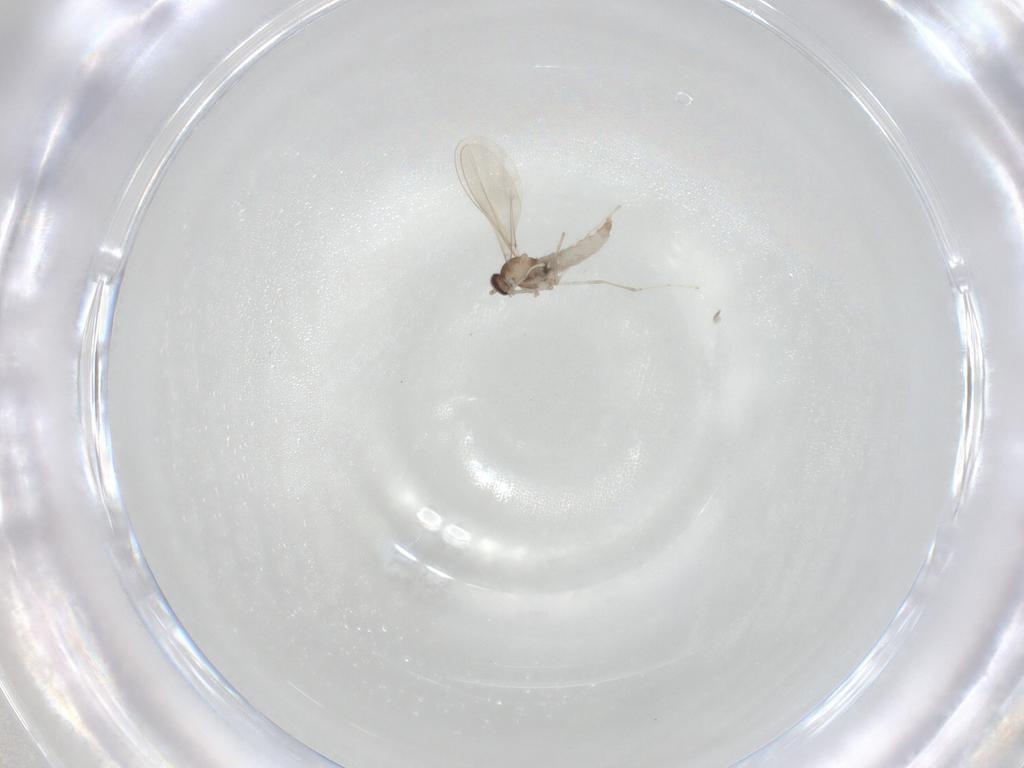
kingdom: Animalia
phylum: Arthropoda
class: Insecta
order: Diptera
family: Cecidomyiidae
